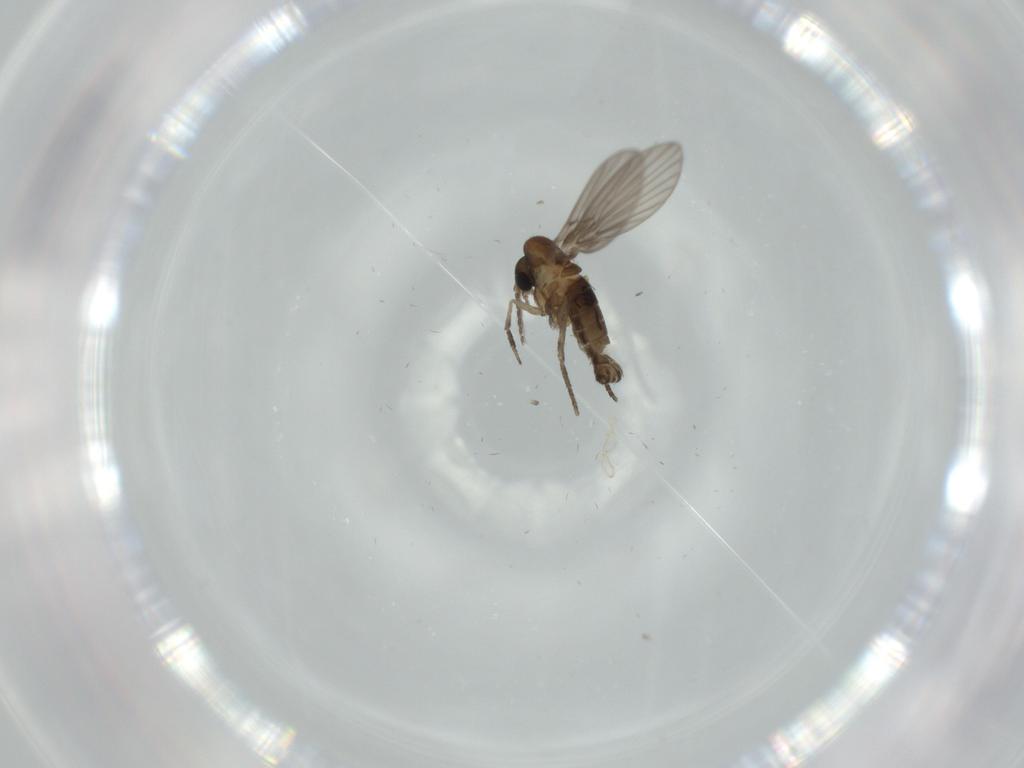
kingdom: Animalia
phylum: Arthropoda
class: Insecta
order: Diptera
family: Psychodidae
